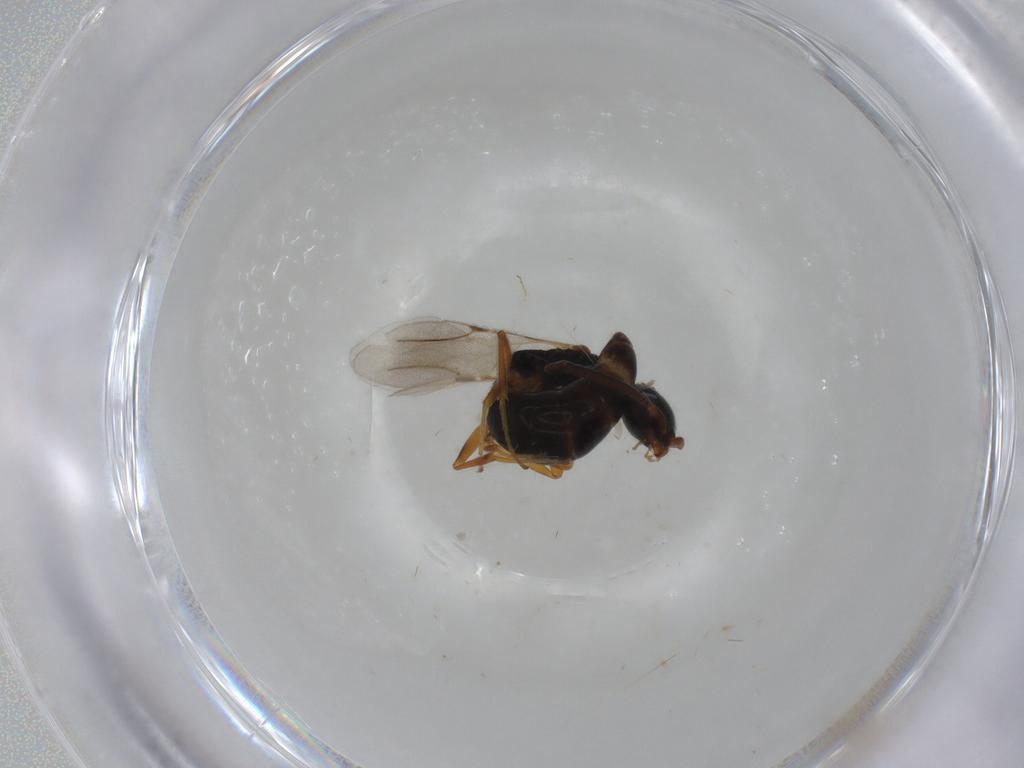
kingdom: Animalia
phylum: Arthropoda
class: Insecta
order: Hymenoptera
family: Bethylidae
